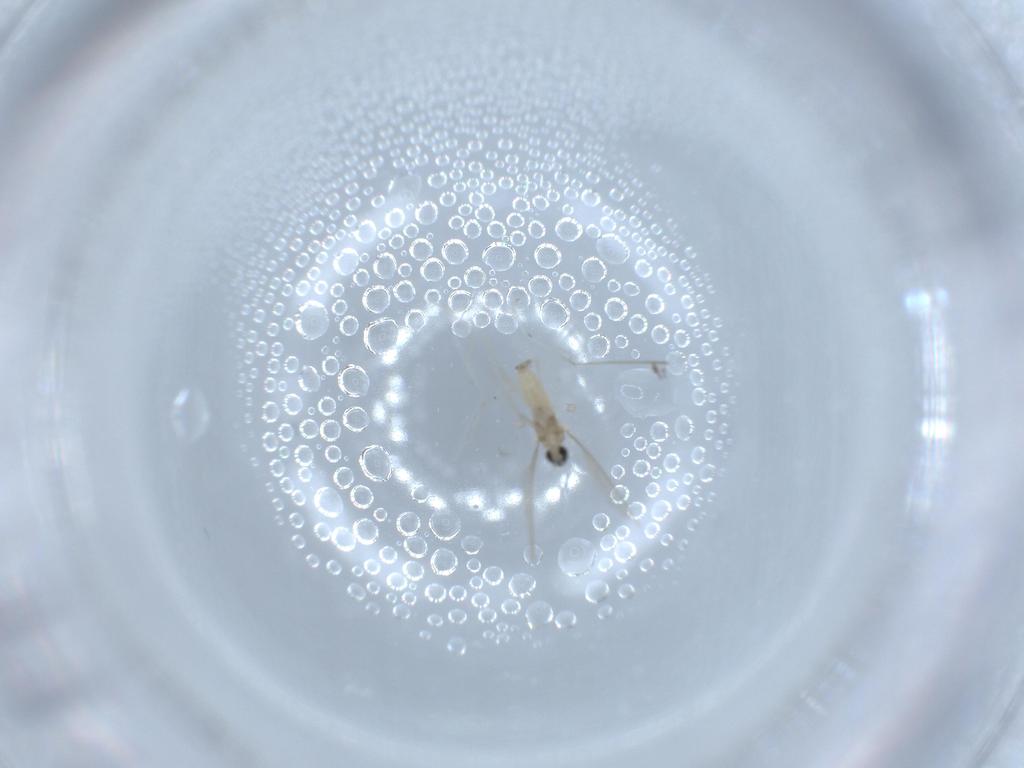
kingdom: Animalia
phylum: Arthropoda
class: Insecta
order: Diptera
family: Cecidomyiidae
